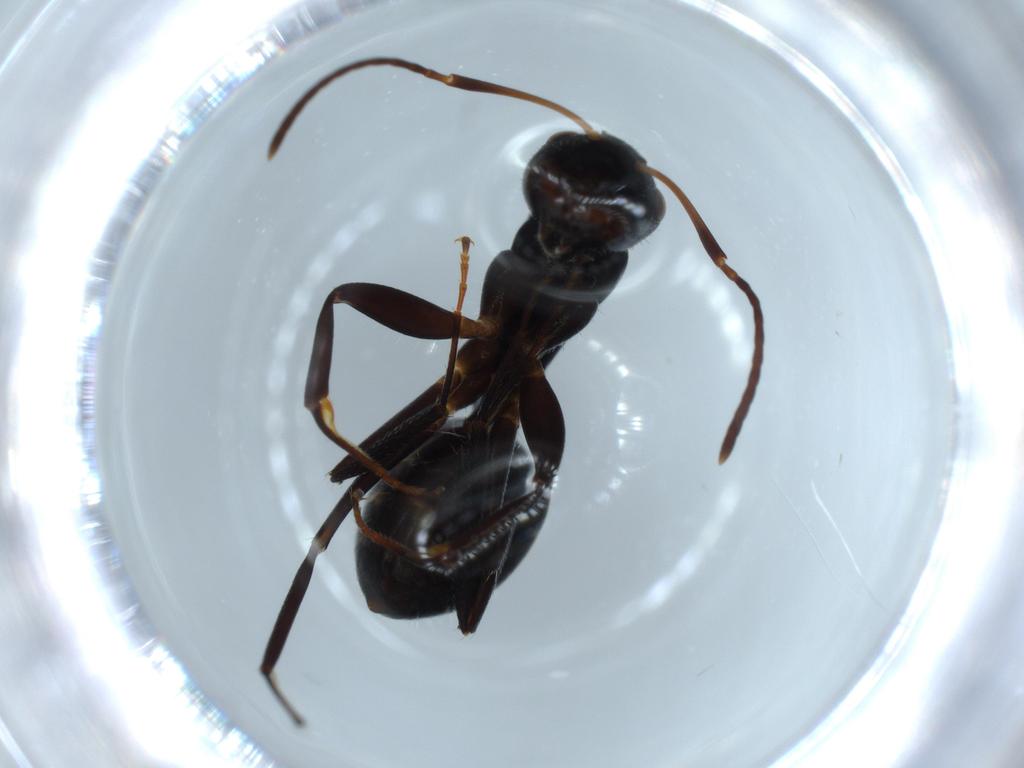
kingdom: Animalia
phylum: Arthropoda
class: Insecta
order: Hymenoptera
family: Formicidae
